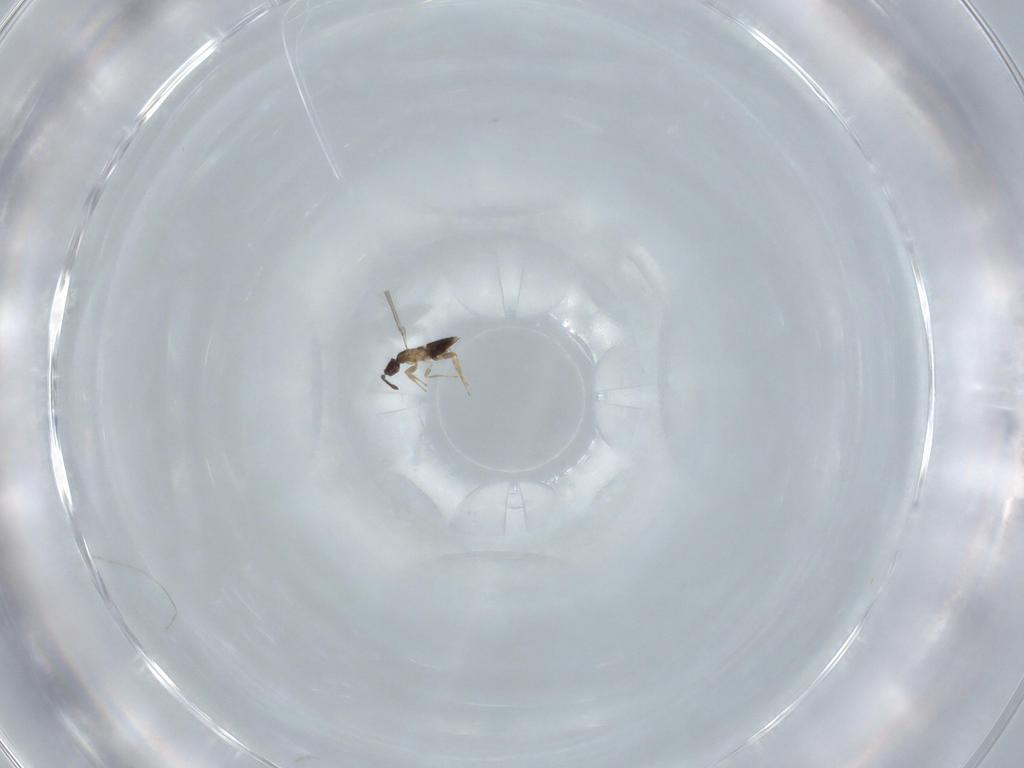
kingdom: Animalia
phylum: Arthropoda
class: Insecta
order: Hymenoptera
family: Mymaridae
